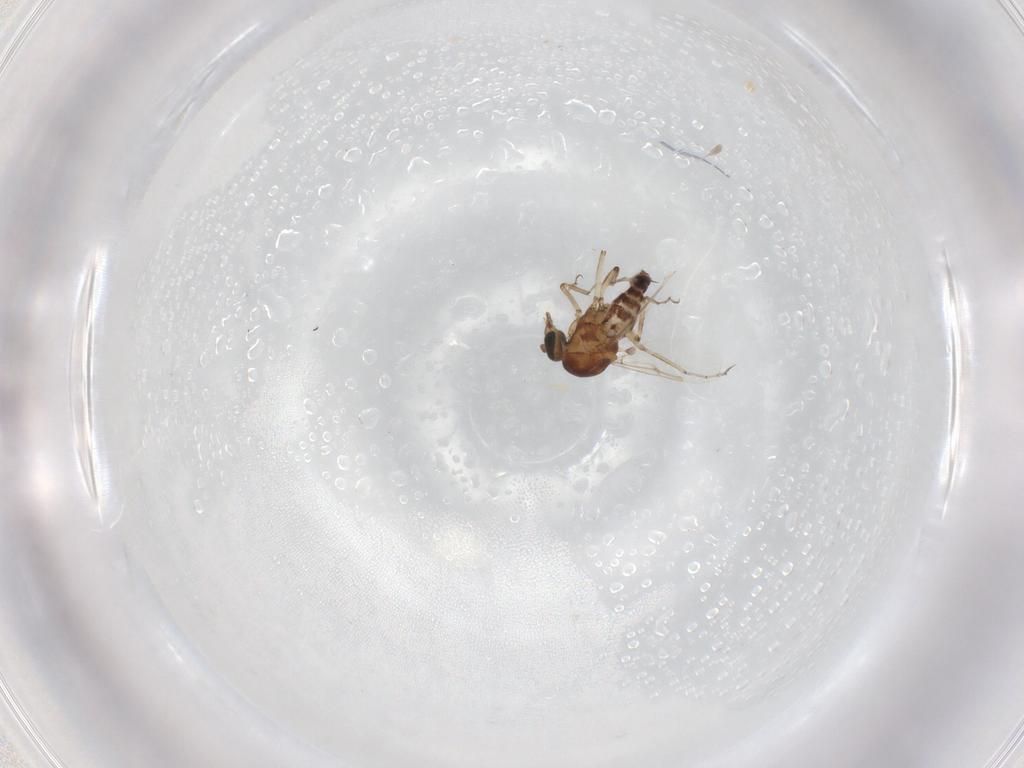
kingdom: Animalia
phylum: Arthropoda
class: Insecta
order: Diptera
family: Ceratopogonidae
